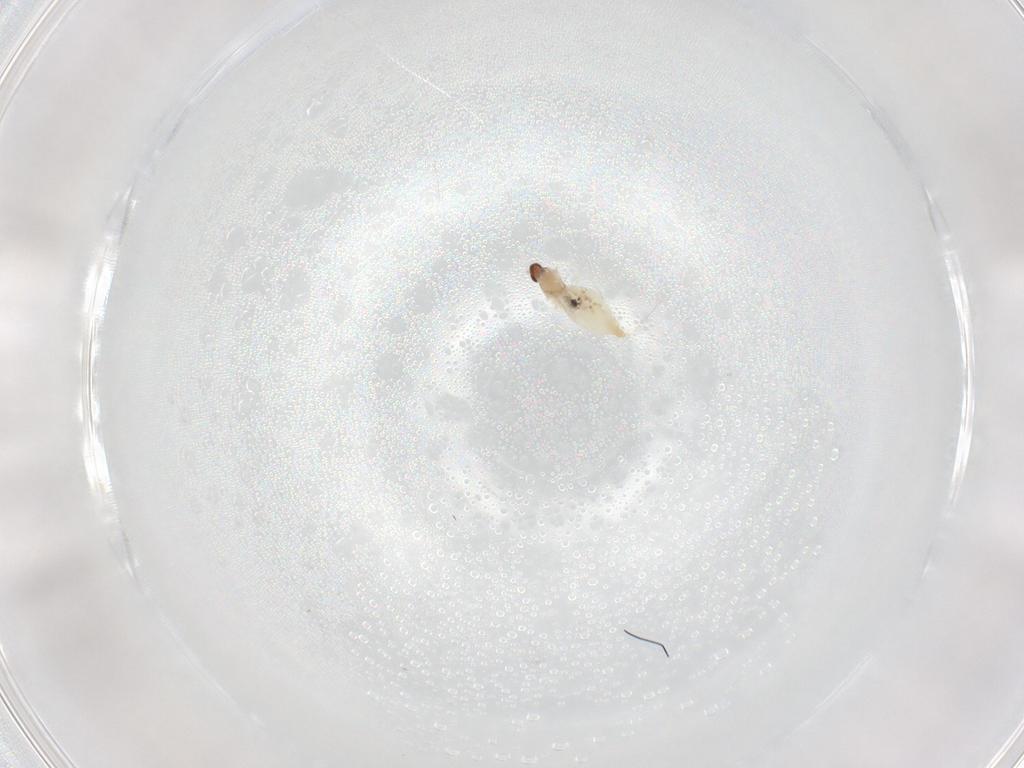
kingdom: Animalia
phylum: Arthropoda
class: Insecta
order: Diptera
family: Cecidomyiidae
